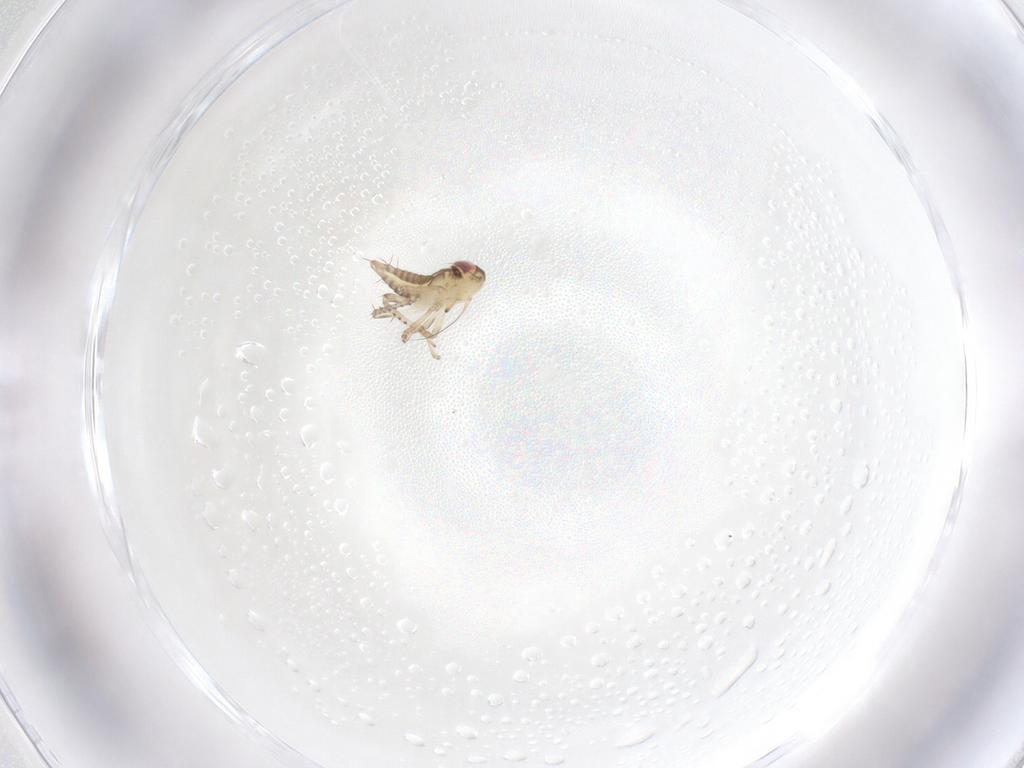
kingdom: Animalia
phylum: Arthropoda
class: Insecta
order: Hemiptera
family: Cicadellidae
